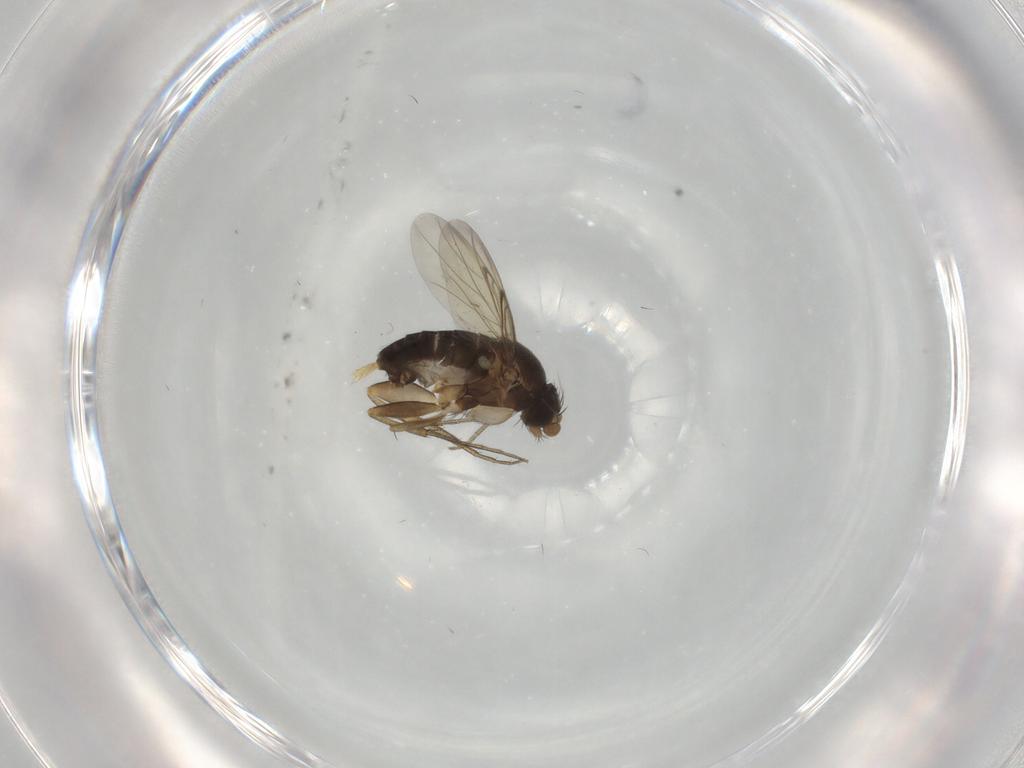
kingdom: Animalia
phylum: Arthropoda
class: Insecta
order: Diptera
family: Phoridae
